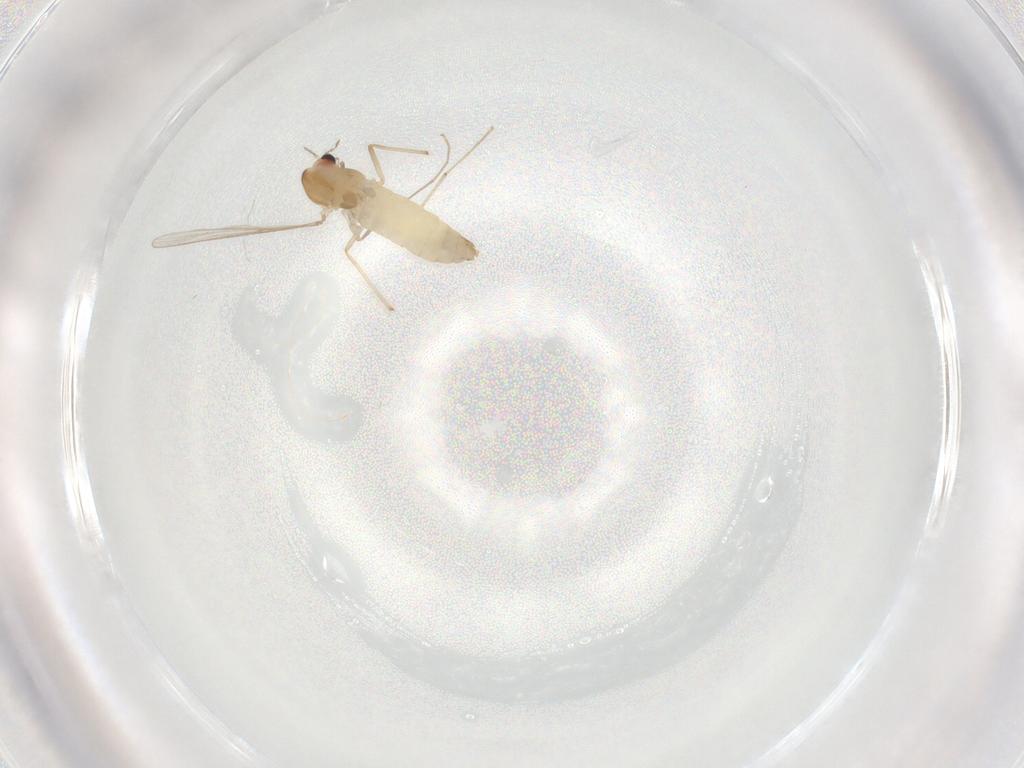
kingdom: Animalia
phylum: Arthropoda
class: Insecta
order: Diptera
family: Chironomidae
